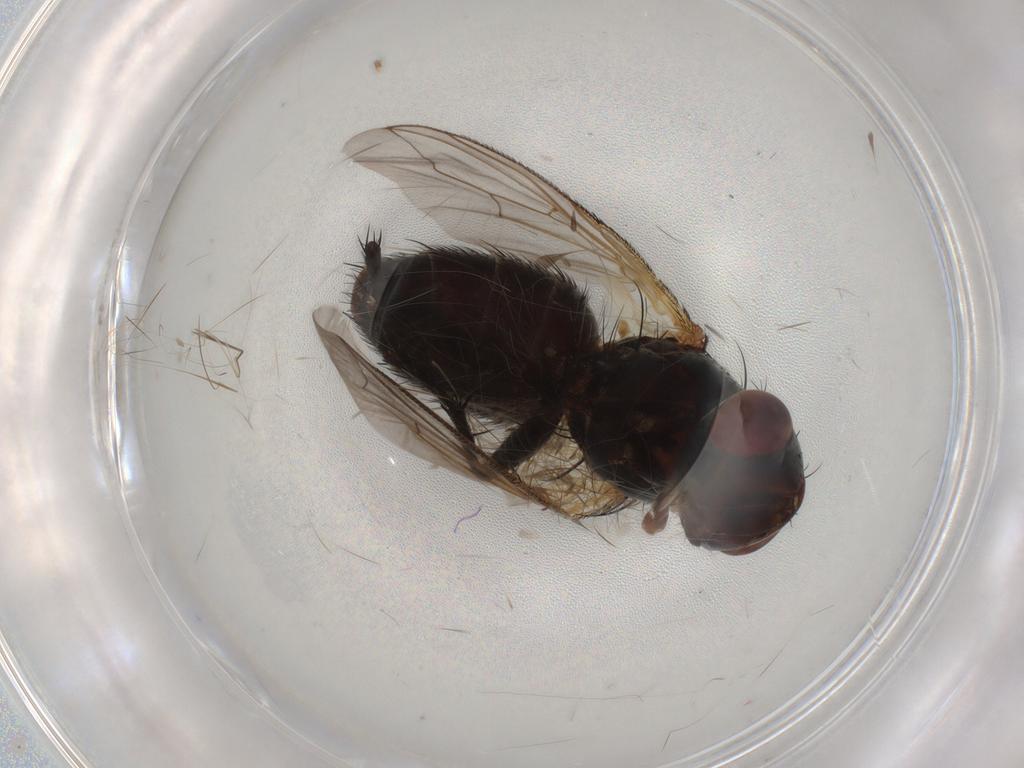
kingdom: Animalia
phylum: Arthropoda
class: Insecta
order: Diptera
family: Sarcophagidae
